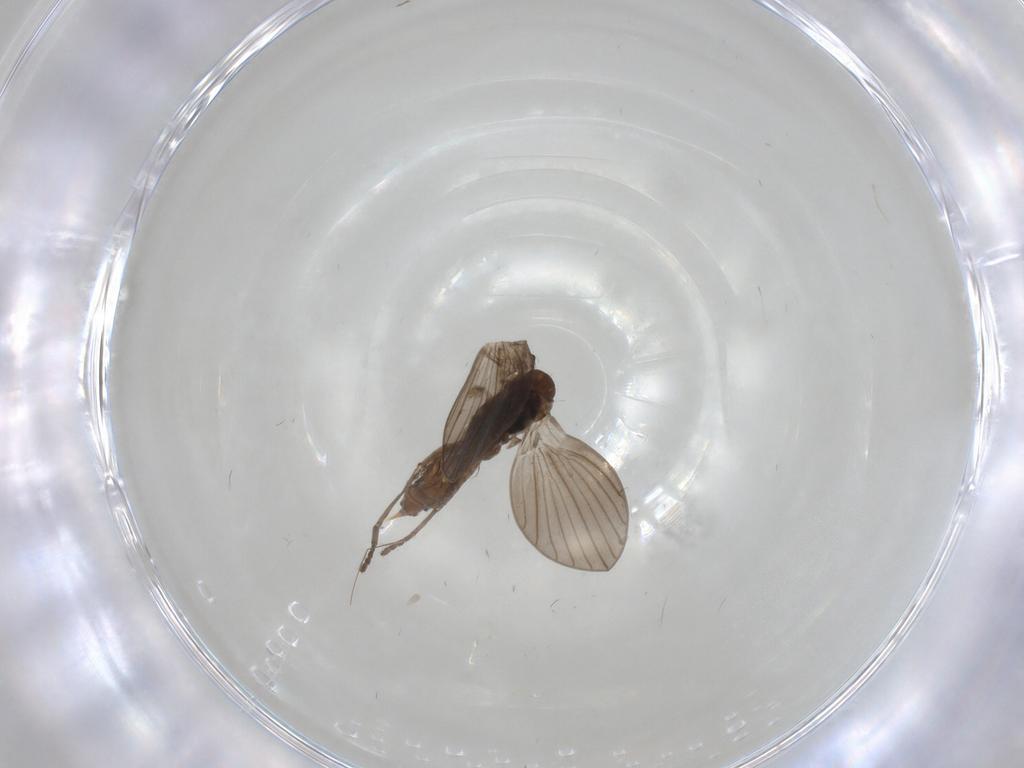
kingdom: Animalia
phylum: Arthropoda
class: Insecta
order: Diptera
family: Psychodidae
